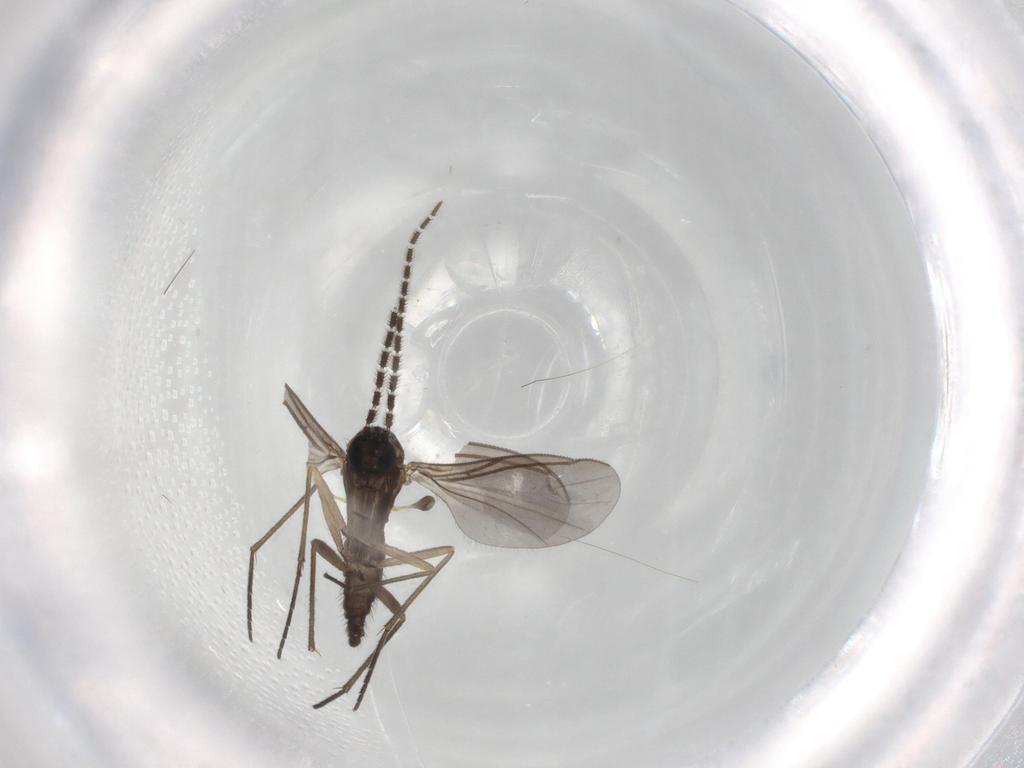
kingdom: Animalia
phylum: Arthropoda
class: Insecta
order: Diptera
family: Sciaridae
